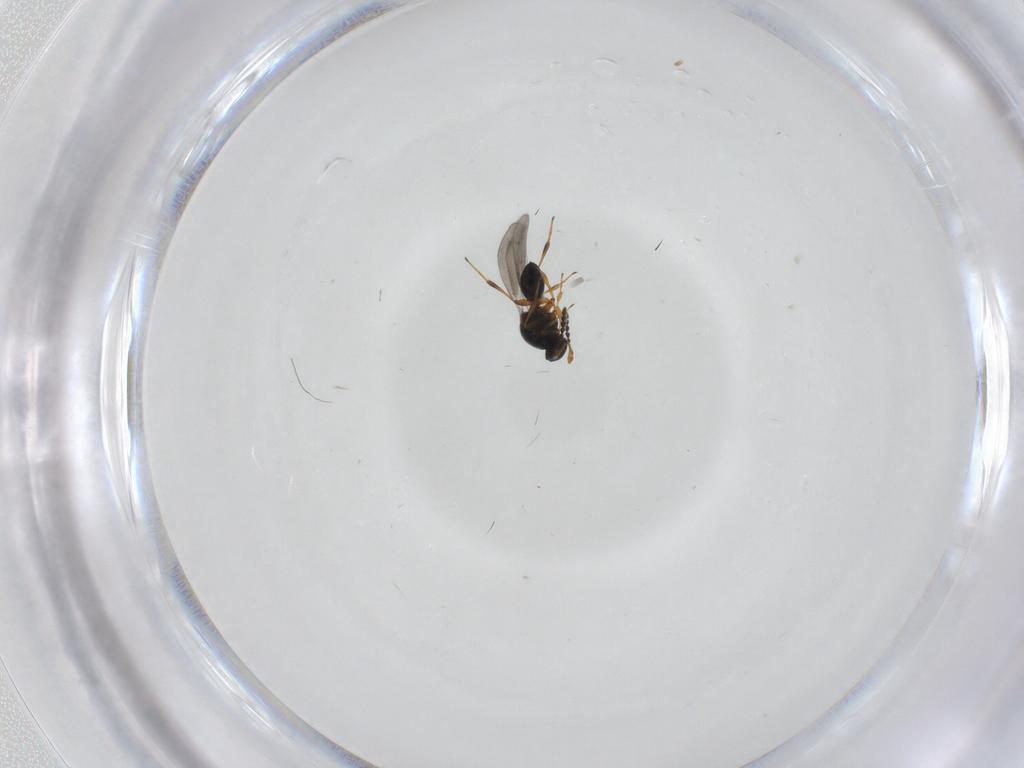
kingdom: Animalia
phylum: Arthropoda
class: Insecta
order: Hymenoptera
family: Platygastridae
